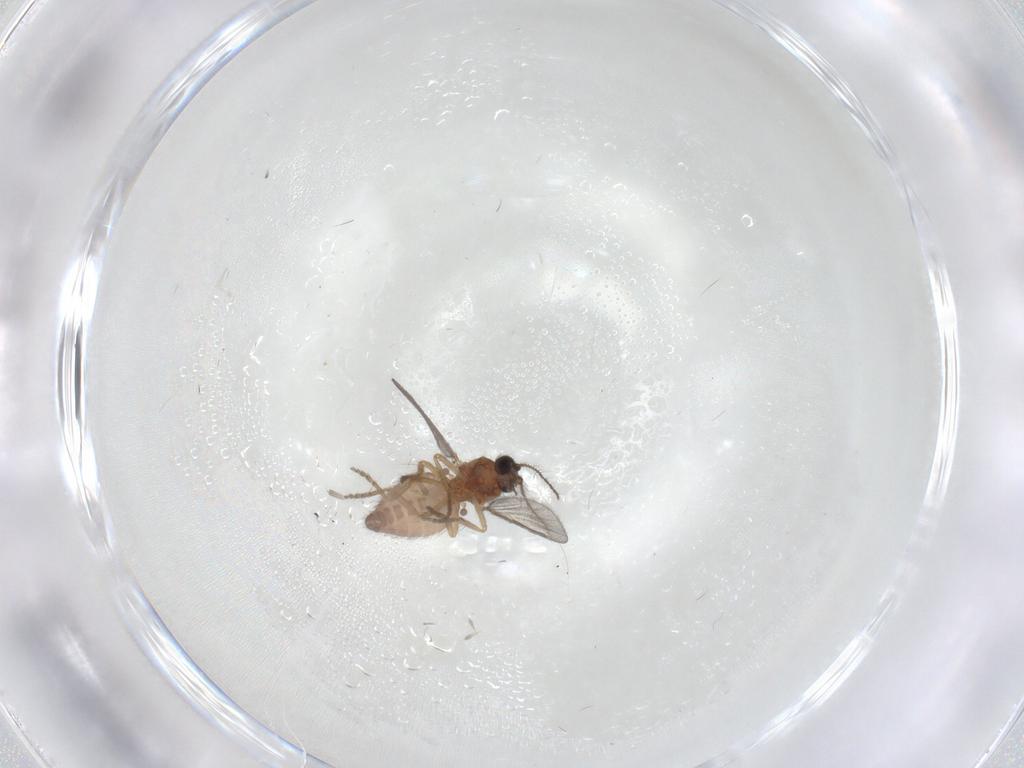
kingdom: Animalia
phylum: Arthropoda
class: Insecta
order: Diptera
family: Ceratopogonidae
